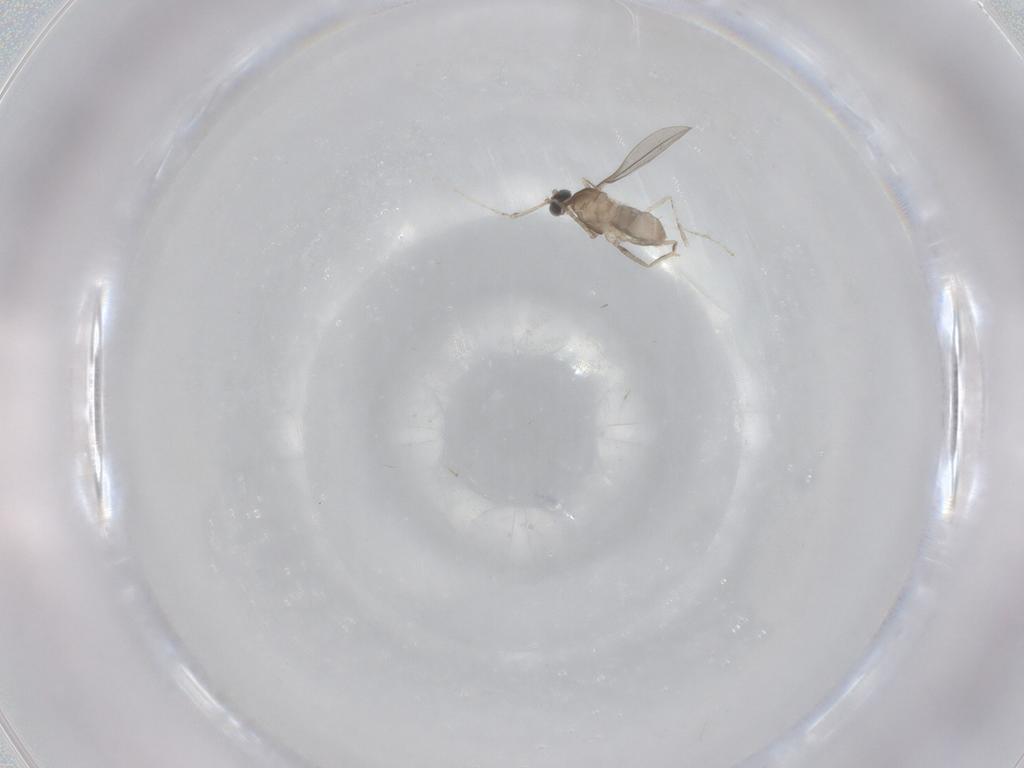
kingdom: Animalia
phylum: Arthropoda
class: Insecta
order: Diptera
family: Cecidomyiidae
